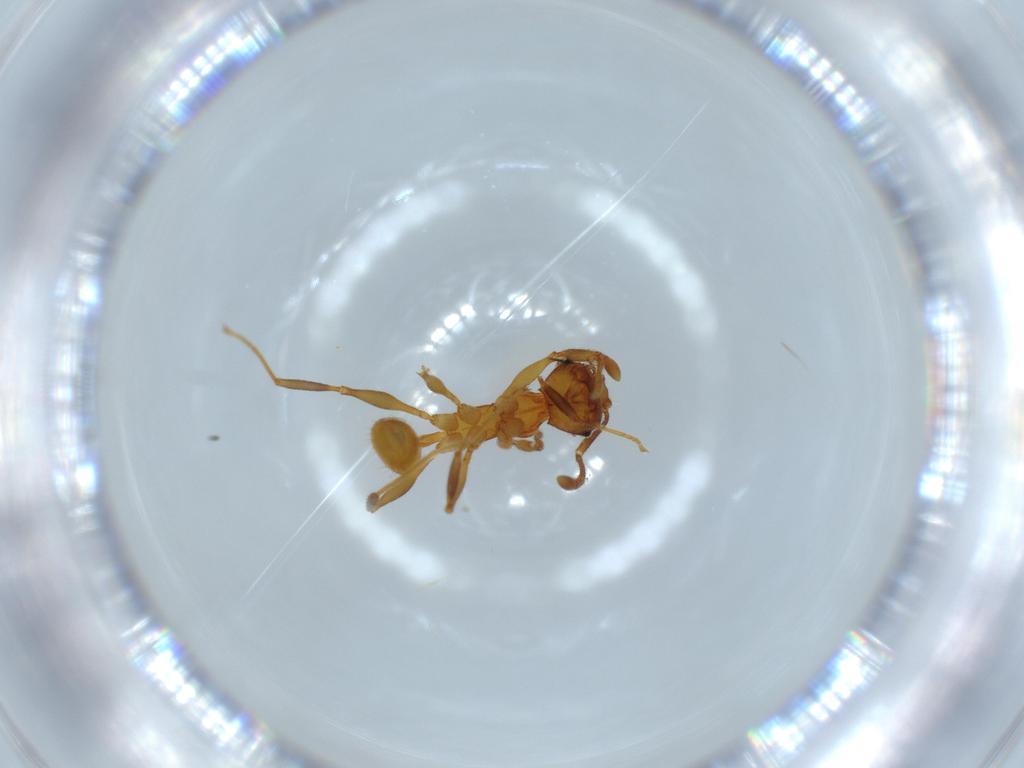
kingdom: Animalia
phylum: Arthropoda
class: Insecta
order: Hymenoptera
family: Formicidae
